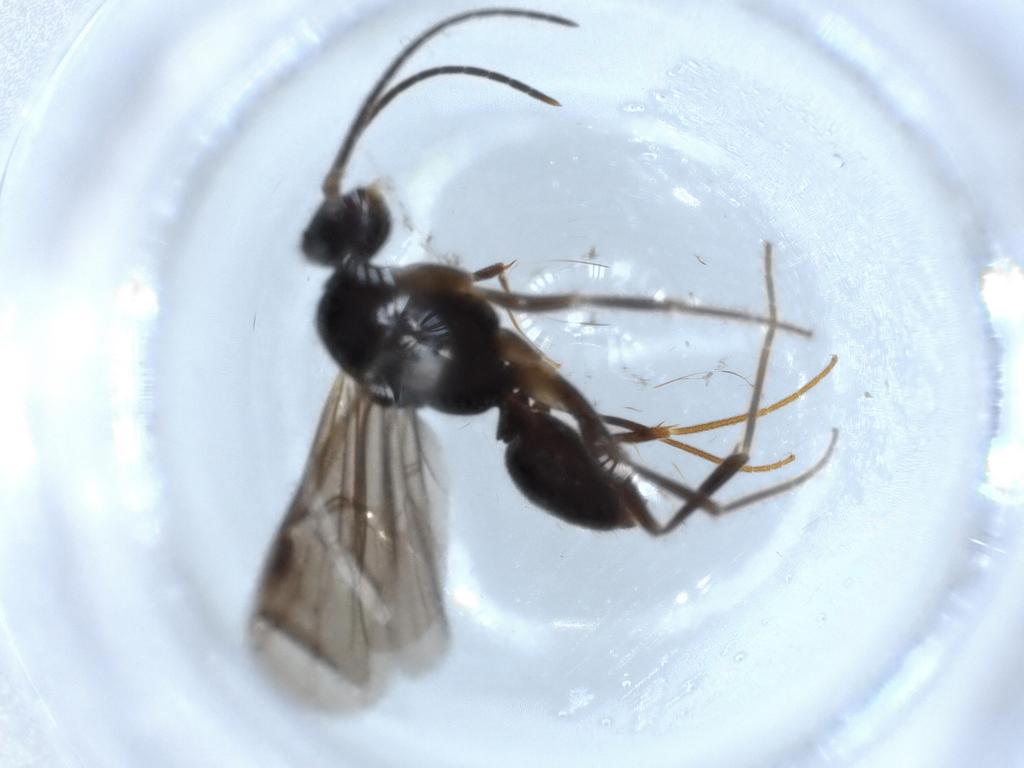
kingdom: Animalia
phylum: Arthropoda
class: Insecta
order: Hymenoptera
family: Formicidae
